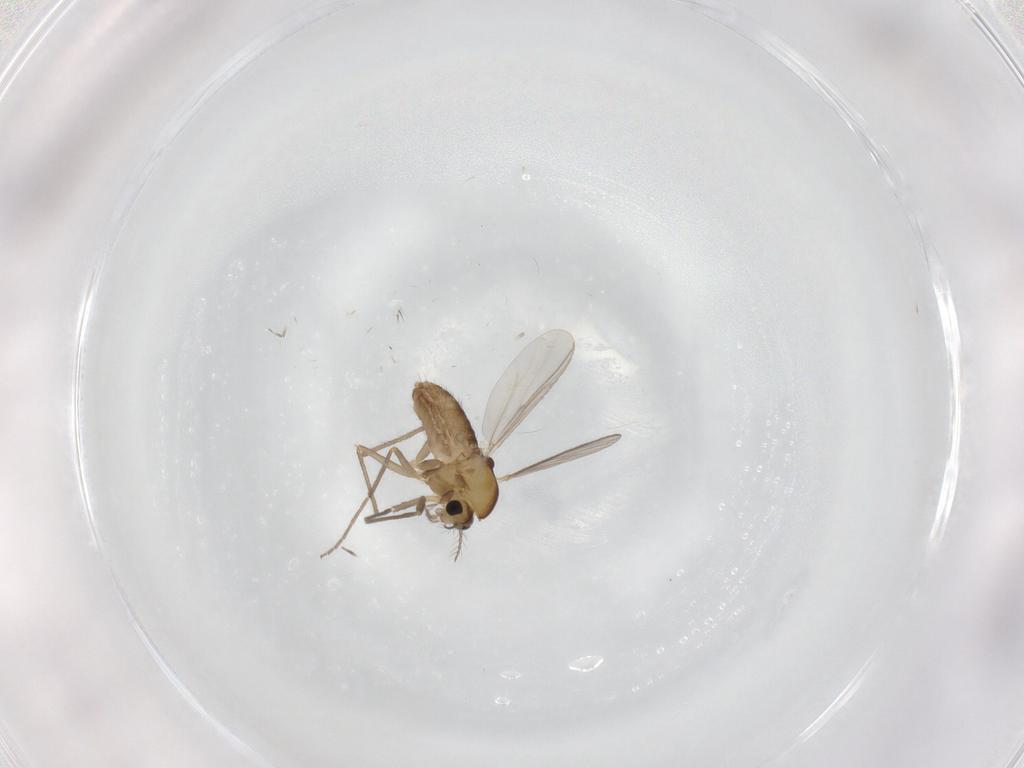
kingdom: Animalia
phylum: Arthropoda
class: Insecta
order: Diptera
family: Chironomidae
